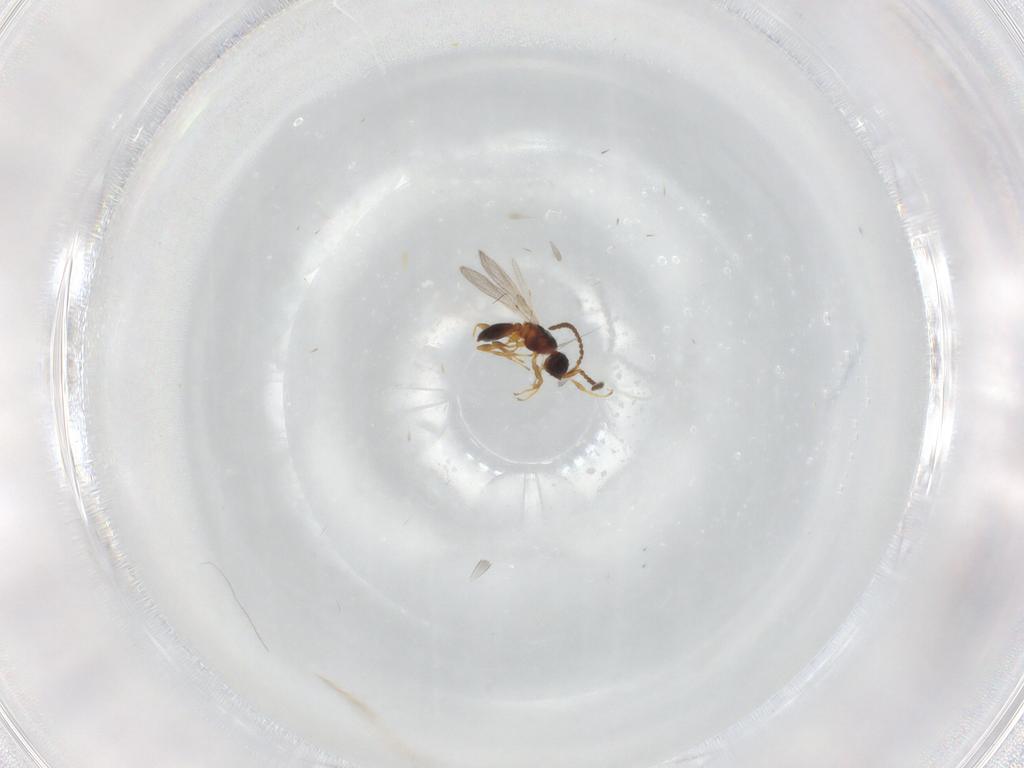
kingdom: Animalia
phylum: Arthropoda
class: Insecta
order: Hymenoptera
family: Diapriidae
